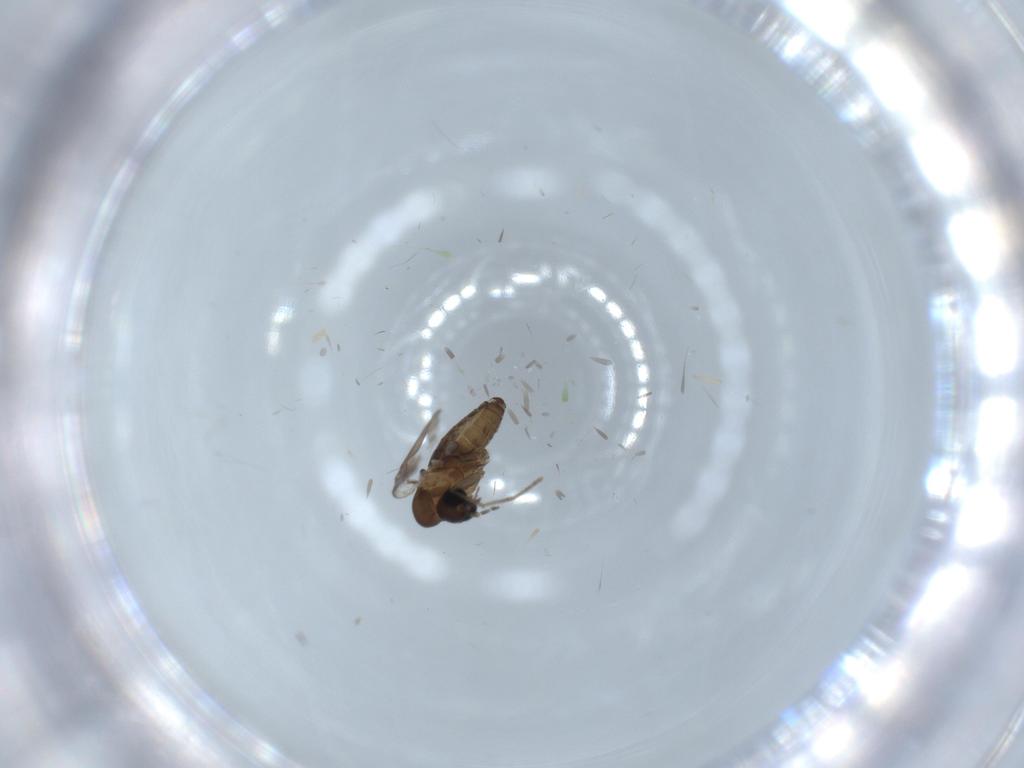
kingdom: Animalia
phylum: Arthropoda
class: Insecta
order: Diptera
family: Psychodidae
